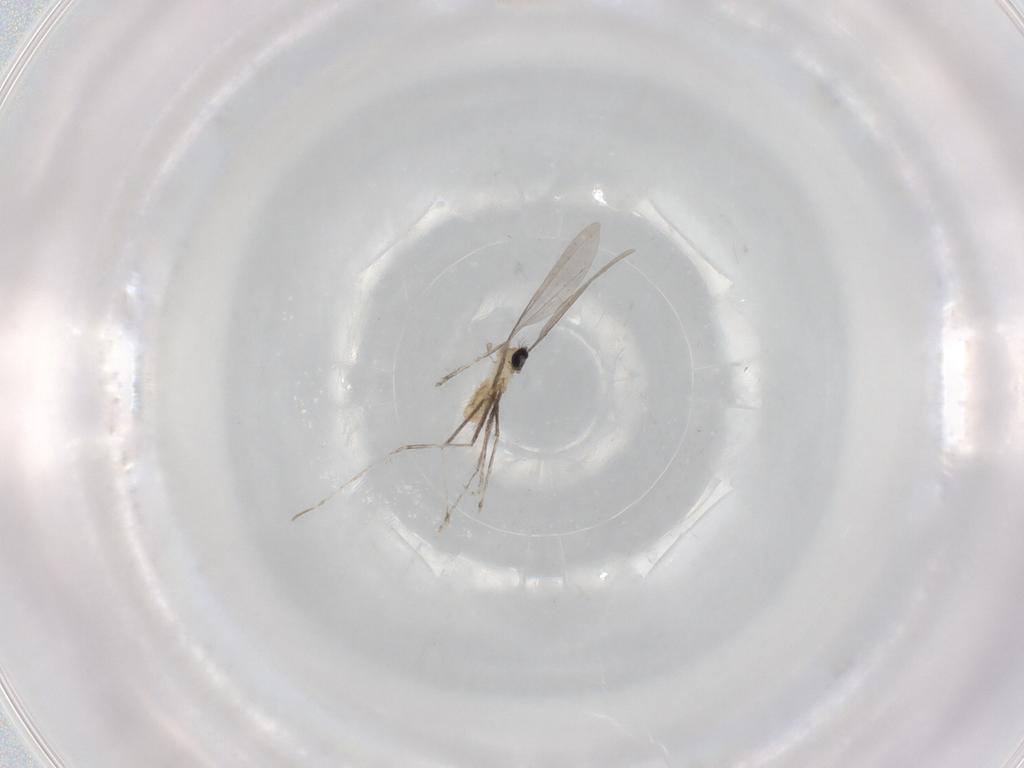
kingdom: Animalia
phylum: Arthropoda
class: Insecta
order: Diptera
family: Cecidomyiidae
